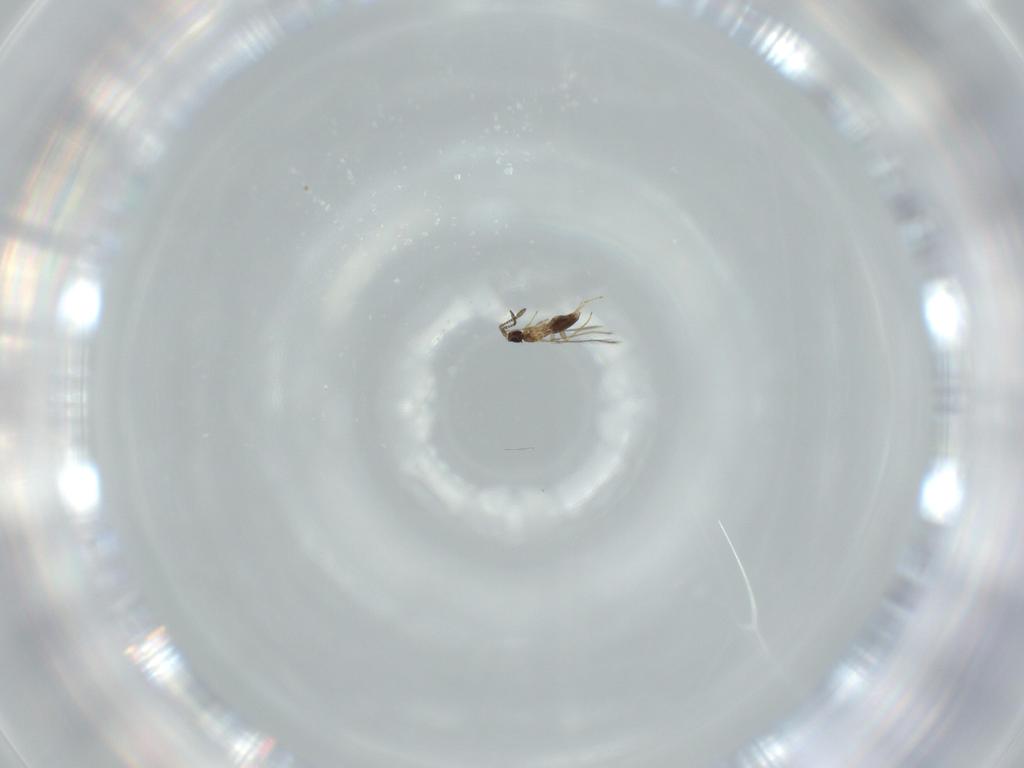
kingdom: Animalia
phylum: Arthropoda
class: Insecta
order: Hymenoptera
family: Mymaridae
